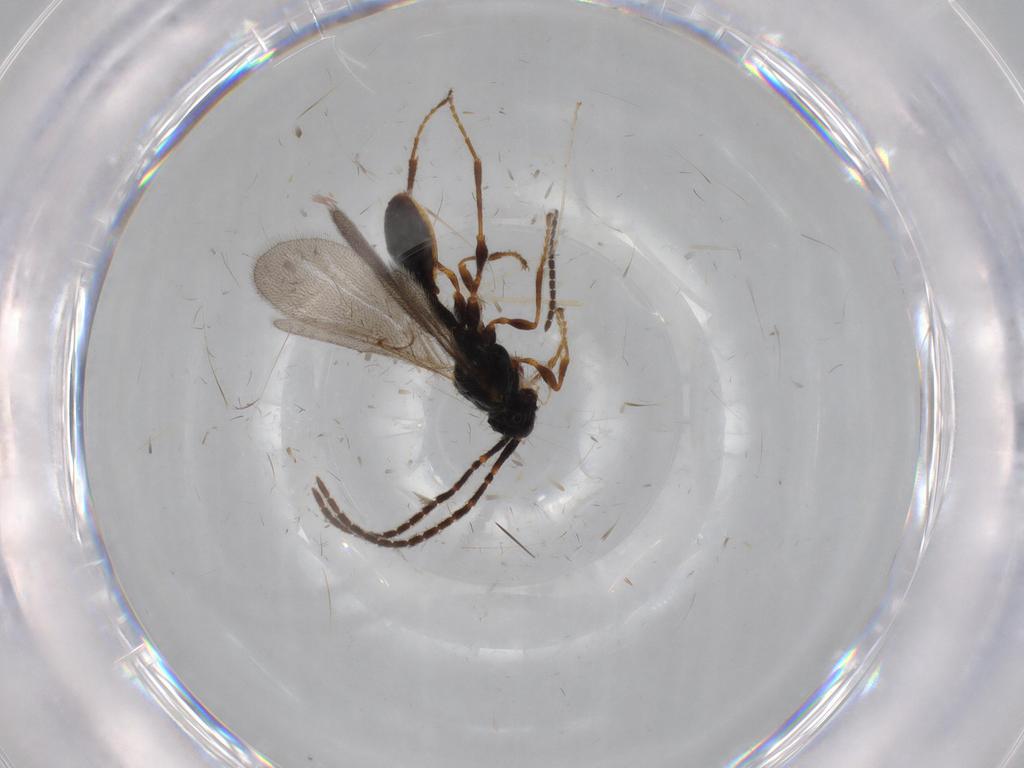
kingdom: Animalia
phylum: Arthropoda
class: Insecta
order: Hymenoptera
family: Diapriidae
